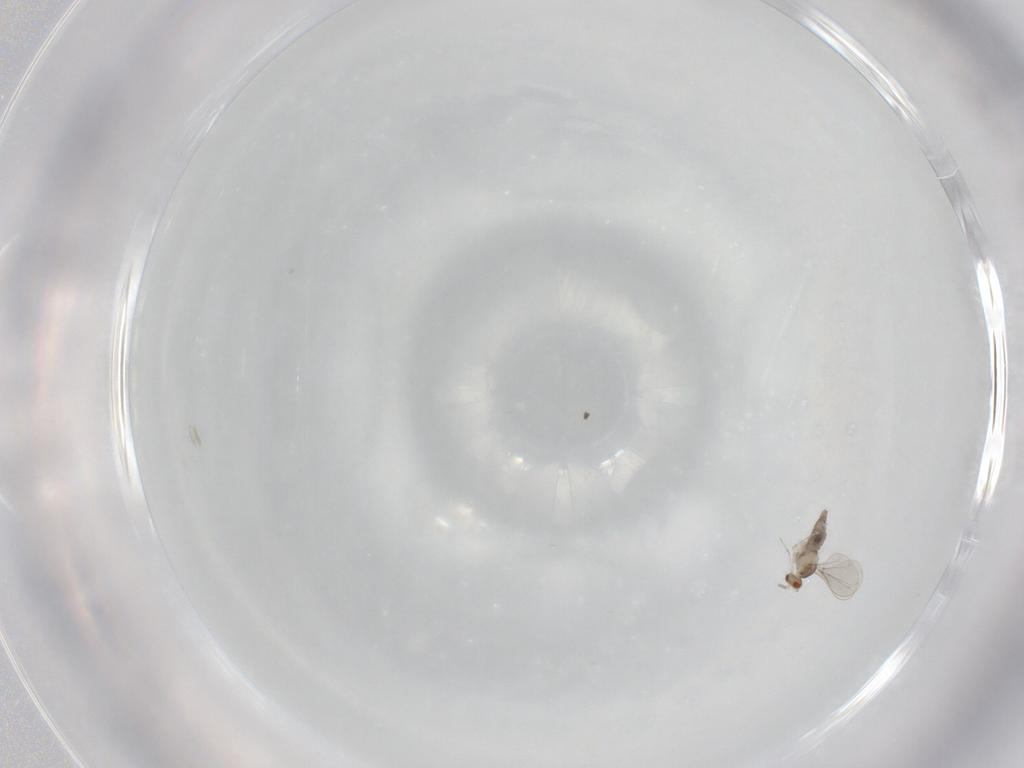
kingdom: Animalia
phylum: Arthropoda
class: Insecta
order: Diptera
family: Cecidomyiidae
